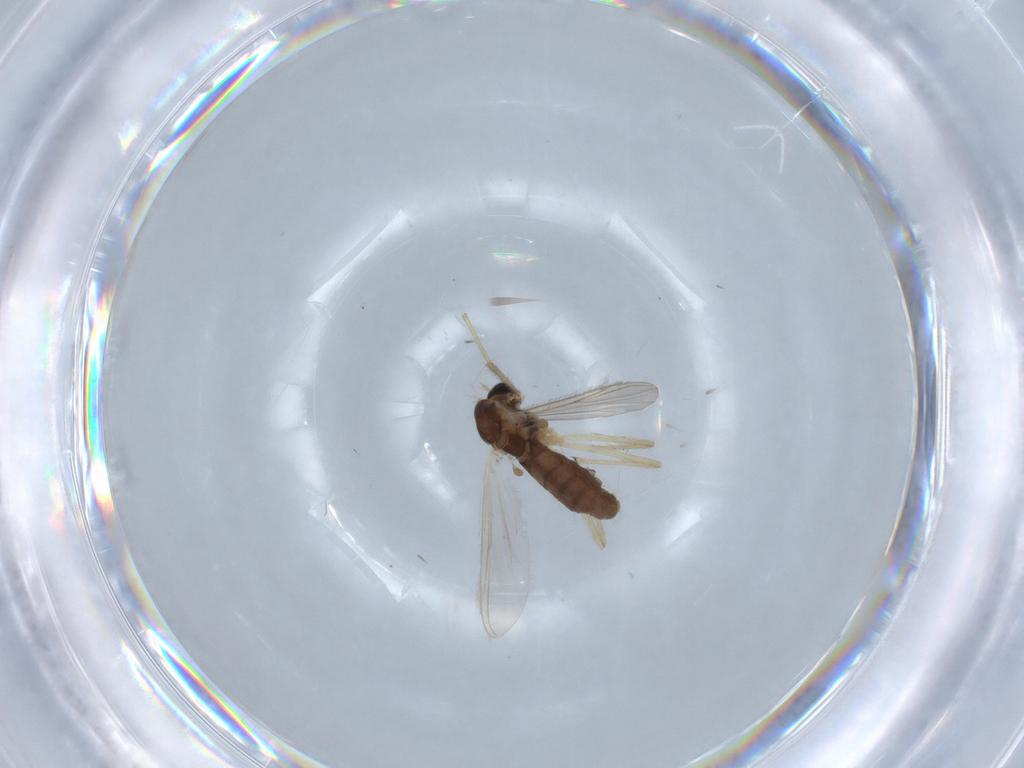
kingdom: Animalia
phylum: Arthropoda
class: Insecta
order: Diptera
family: Chironomidae
